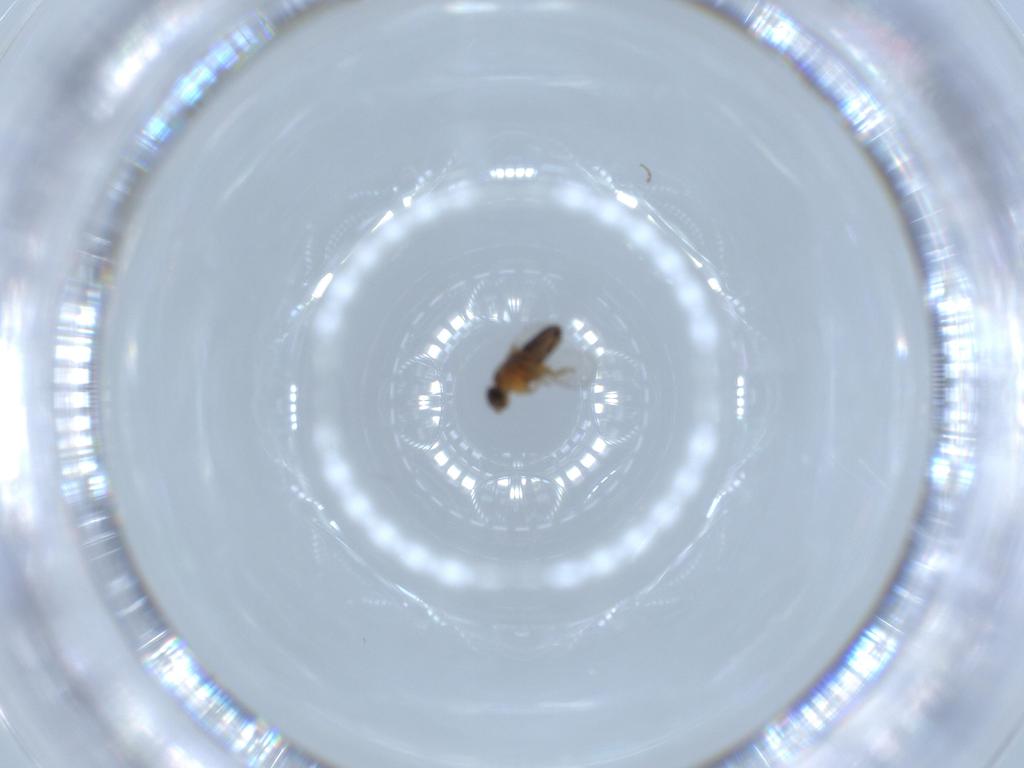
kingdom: Animalia
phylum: Arthropoda
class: Insecta
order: Diptera
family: Phoridae
